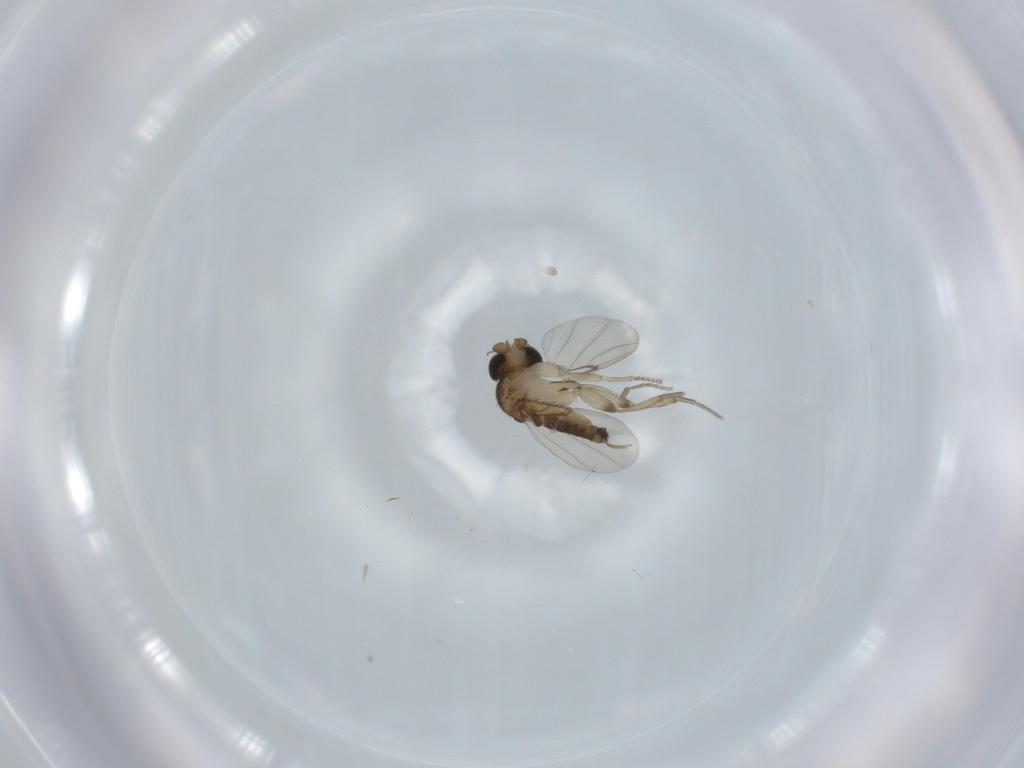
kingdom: Animalia
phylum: Arthropoda
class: Insecta
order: Diptera
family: Phoridae
